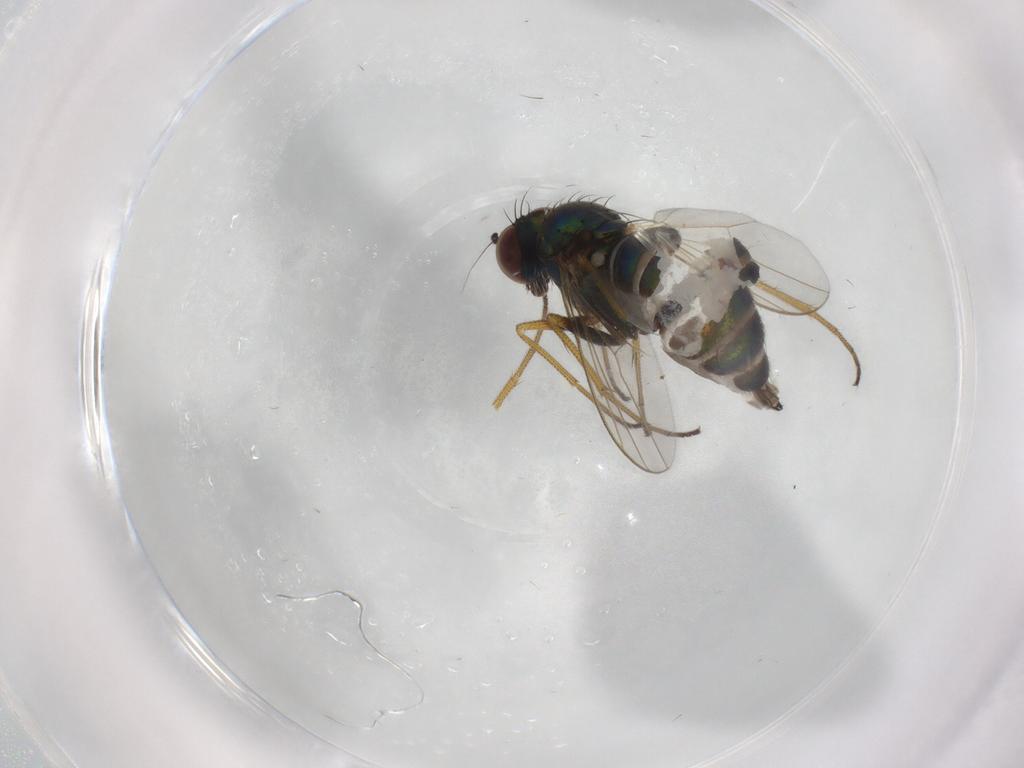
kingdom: Animalia
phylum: Arthropoda
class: Insecta
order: Diptera
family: Dolichopodidae
